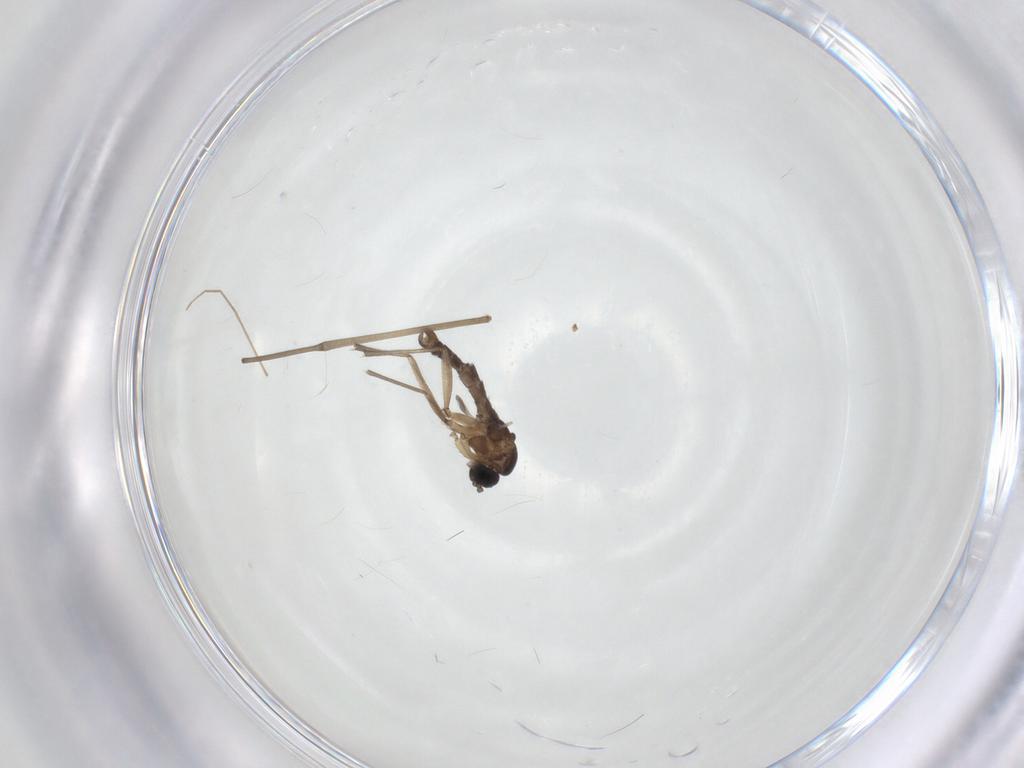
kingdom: Animalia
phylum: Arthropoda
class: Insecta
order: Diptera
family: Sciaridae
